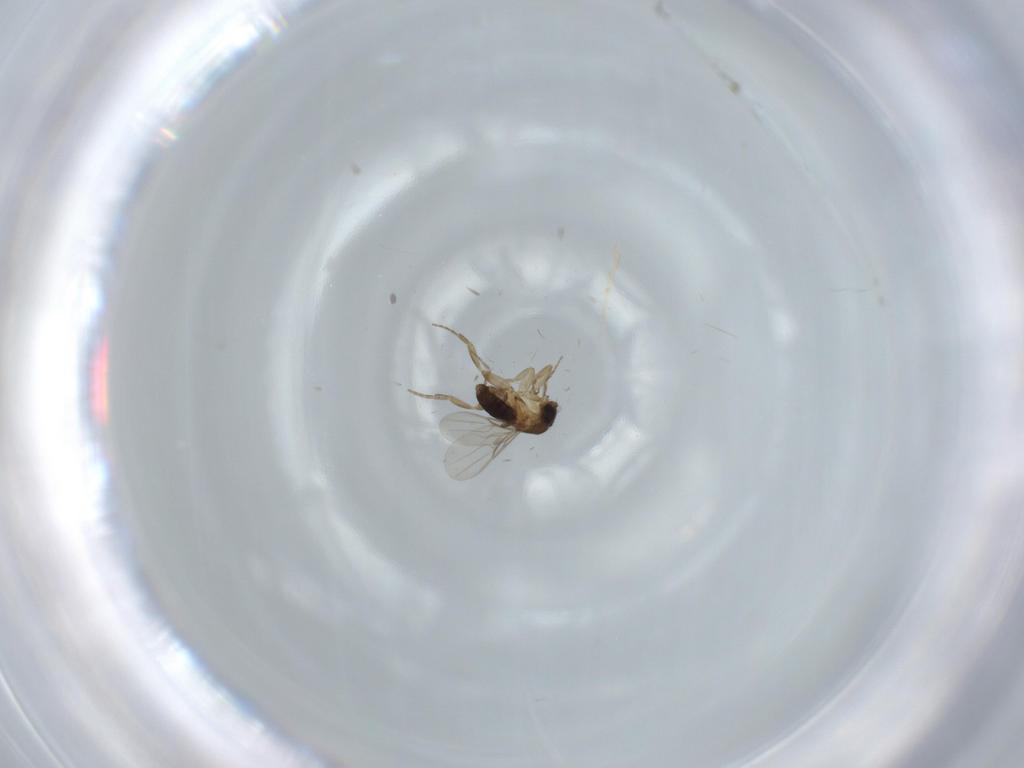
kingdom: Animalia
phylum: Arthropoda
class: Insecta
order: Diptera
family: Phoridae
